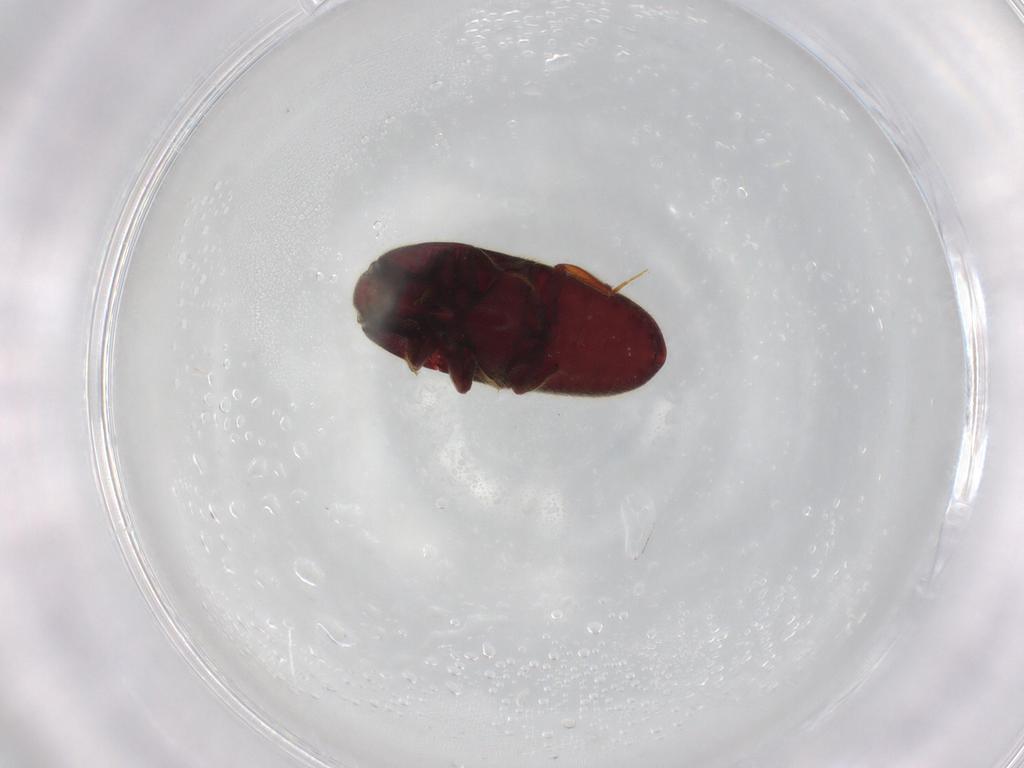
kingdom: Animalia
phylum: Arthropoda
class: Insecta
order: Coleoptera
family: Throscidae
